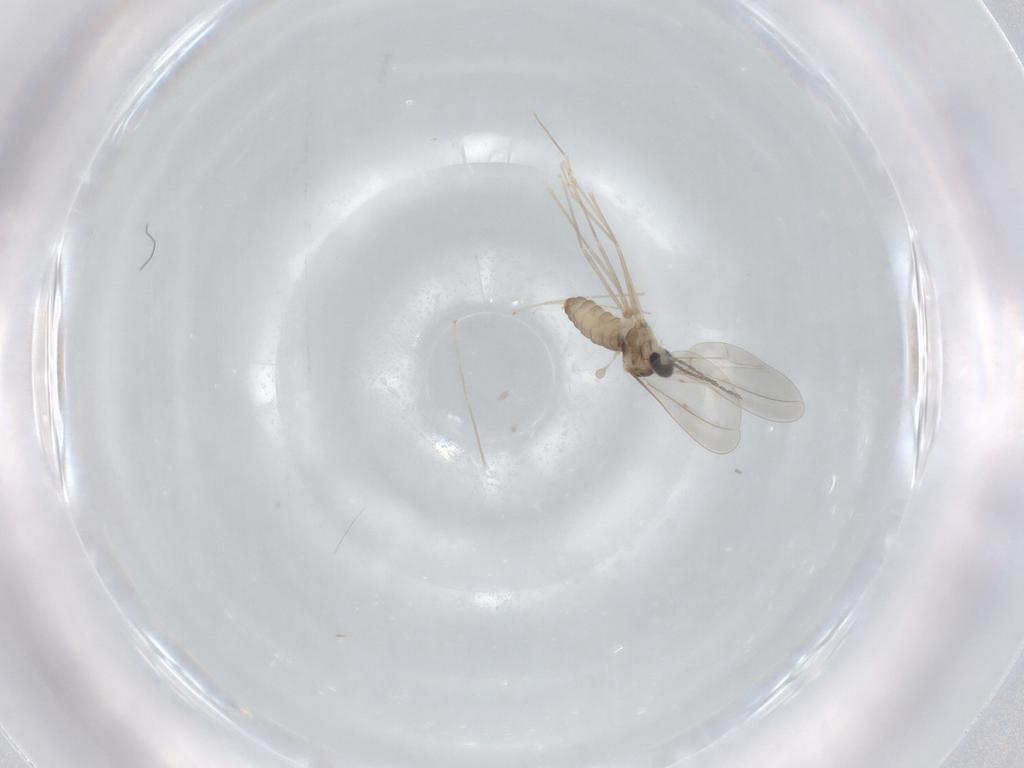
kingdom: Animalia
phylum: Arthropoda
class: Insecta
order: Diptera
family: Cecidomyiidae
